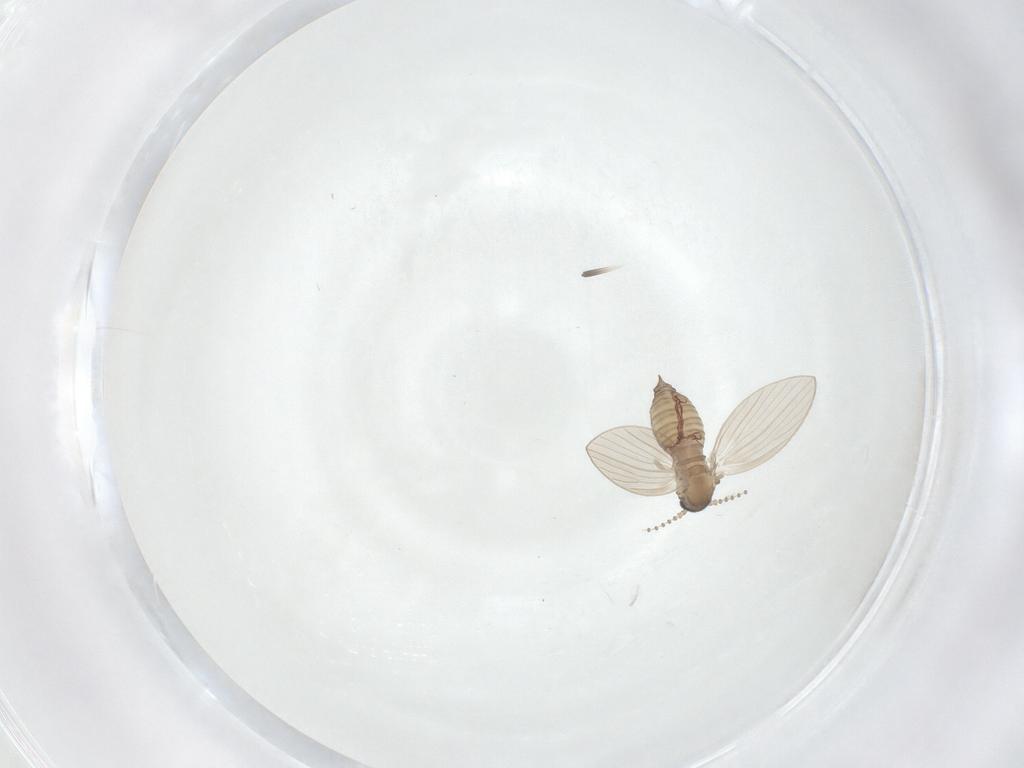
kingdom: Animalia
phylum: Arthropoda
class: Insecta
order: Diptera
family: Psychodidae
